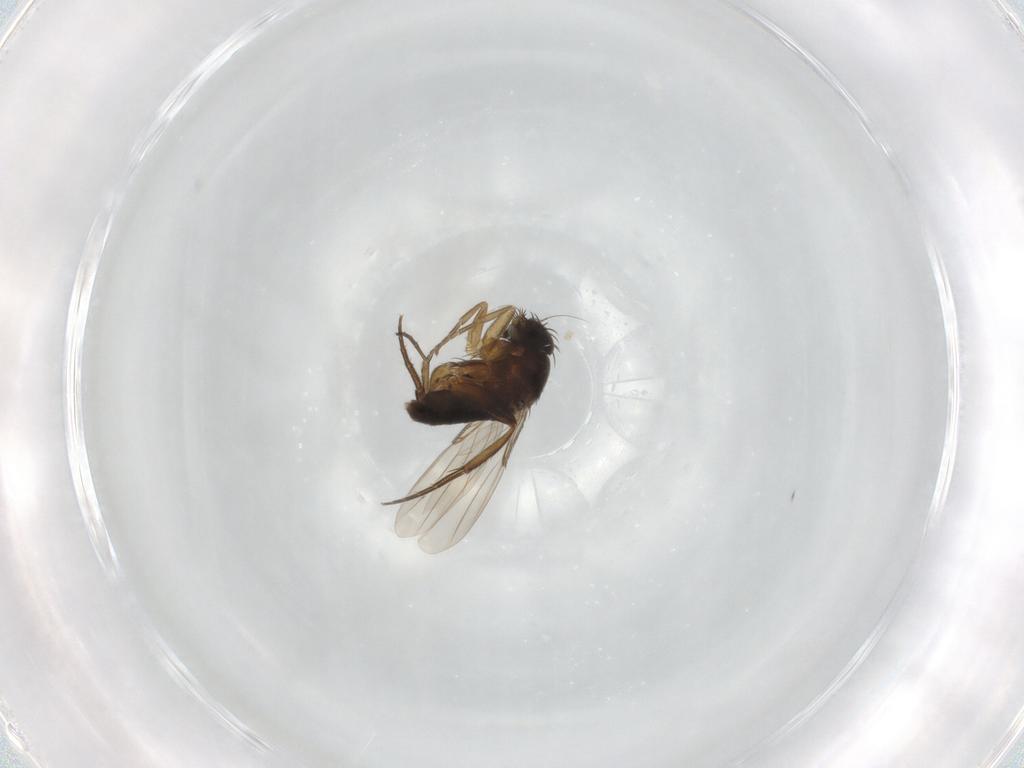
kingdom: Animalia
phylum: Arthropoda
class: Insecta
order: Diptera
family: Phoridae
